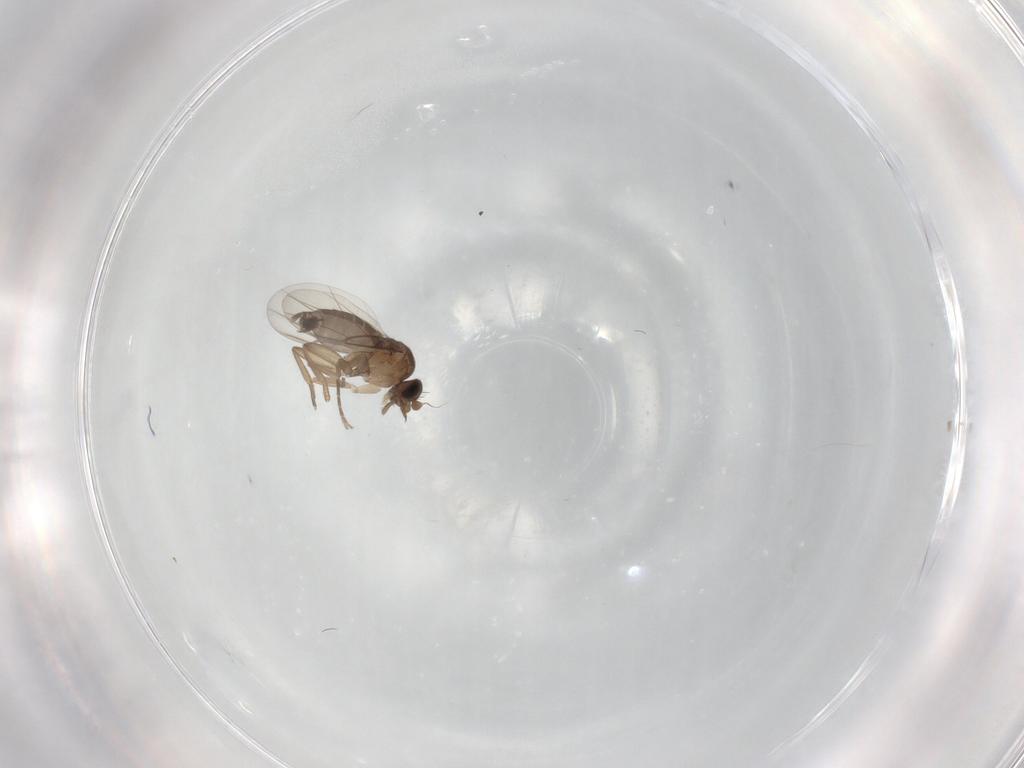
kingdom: Animalia
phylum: Arthropoda
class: Insecta
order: Diptera
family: Phoridae
